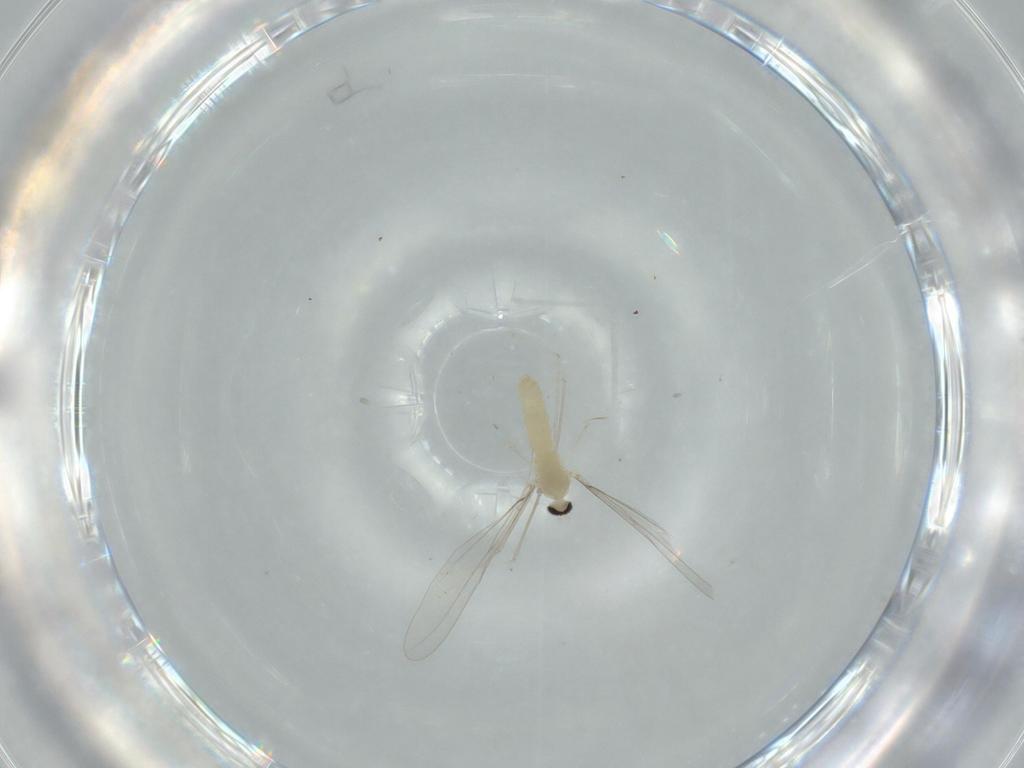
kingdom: Animalia
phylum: Arthropoda
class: Insecta
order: Diptera
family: Cecidomyiidae
